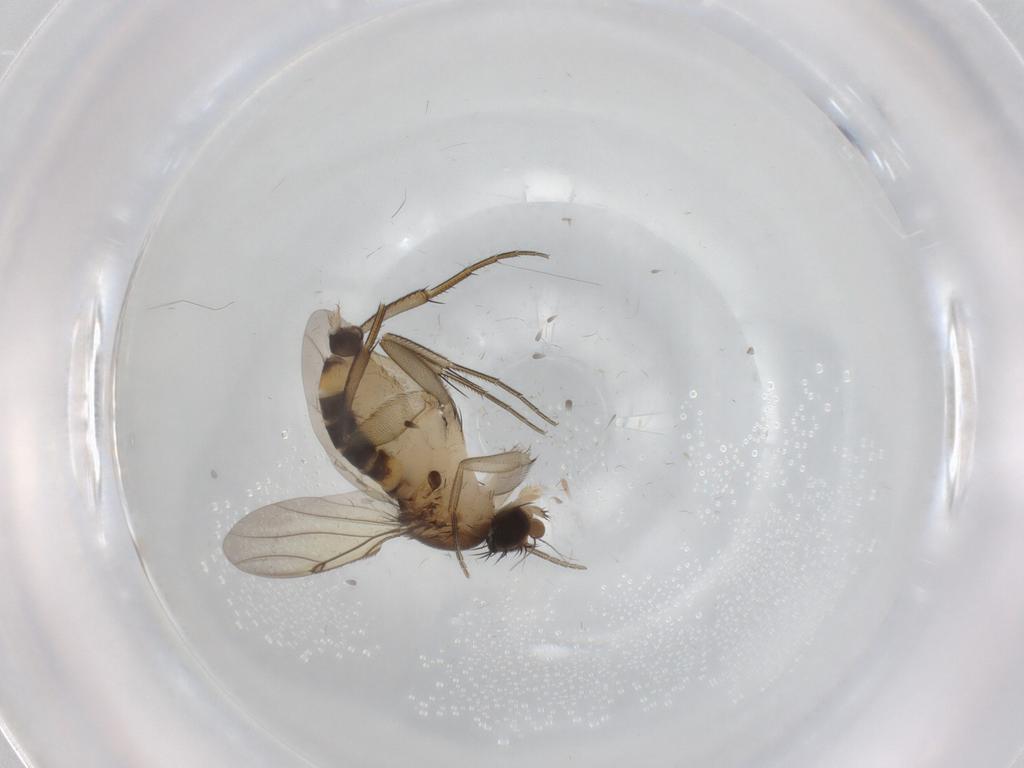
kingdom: Animalia
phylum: Arthropoda
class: Insecta
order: Diptera
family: Phoridae
